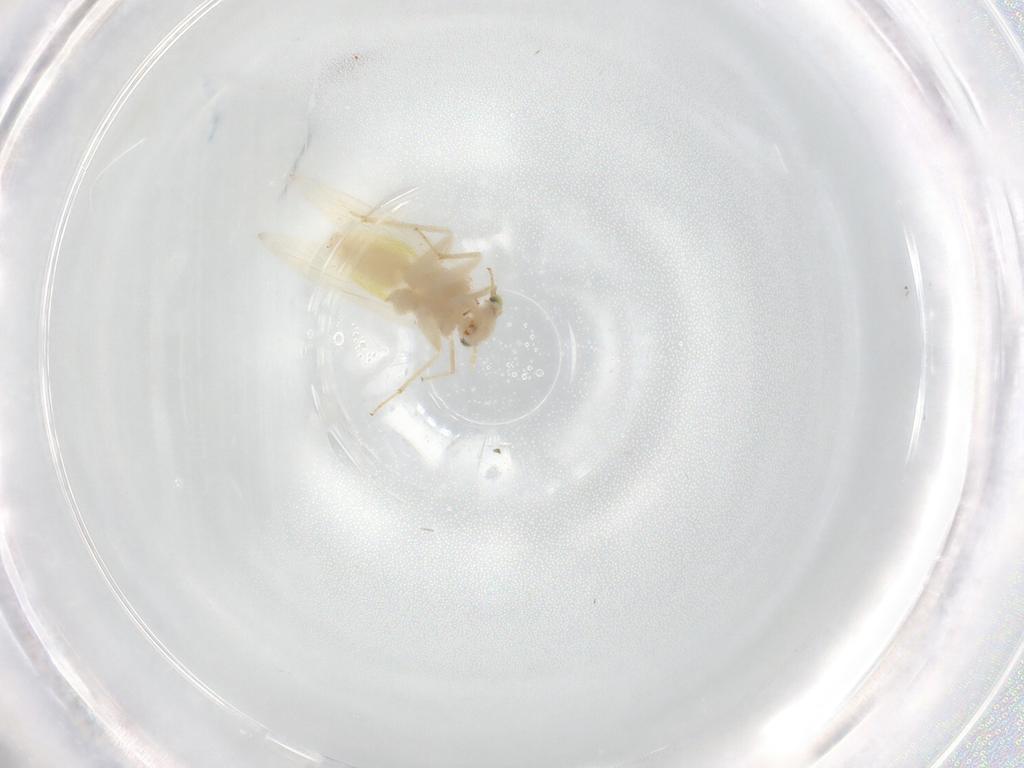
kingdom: Animalia
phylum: Arthropoda
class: Insecta
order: Psocodea
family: Lepidopsocidae
